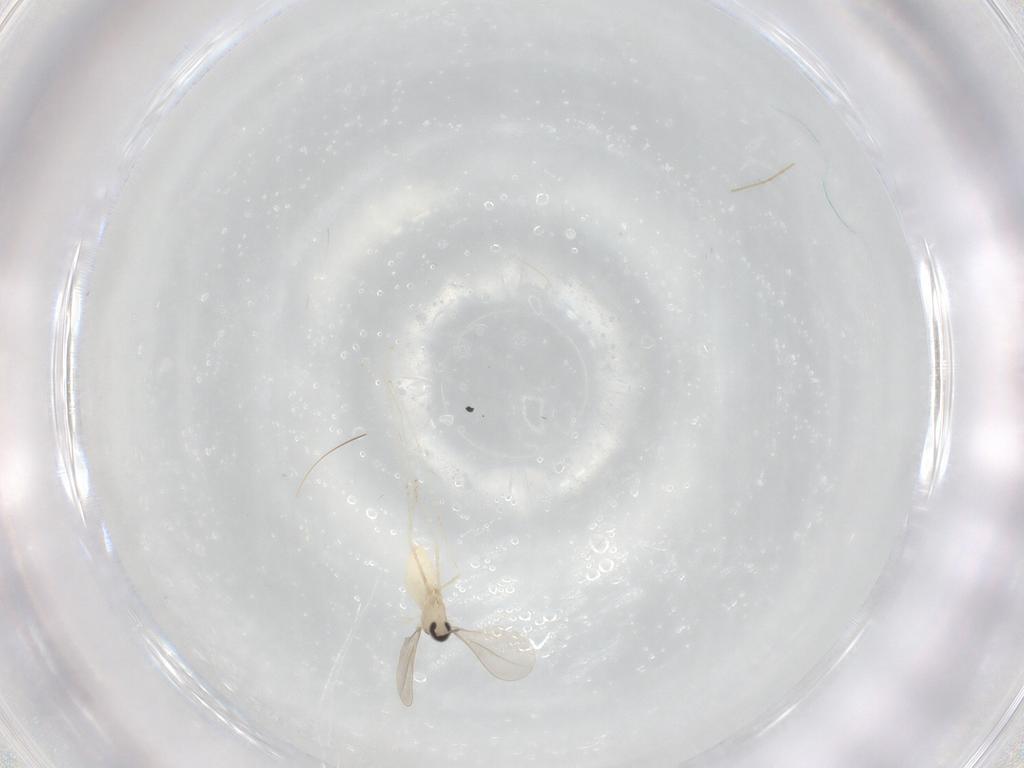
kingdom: Animalia
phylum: Arthropoda
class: Insecta
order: Diptera
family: Cecidomyiidae
